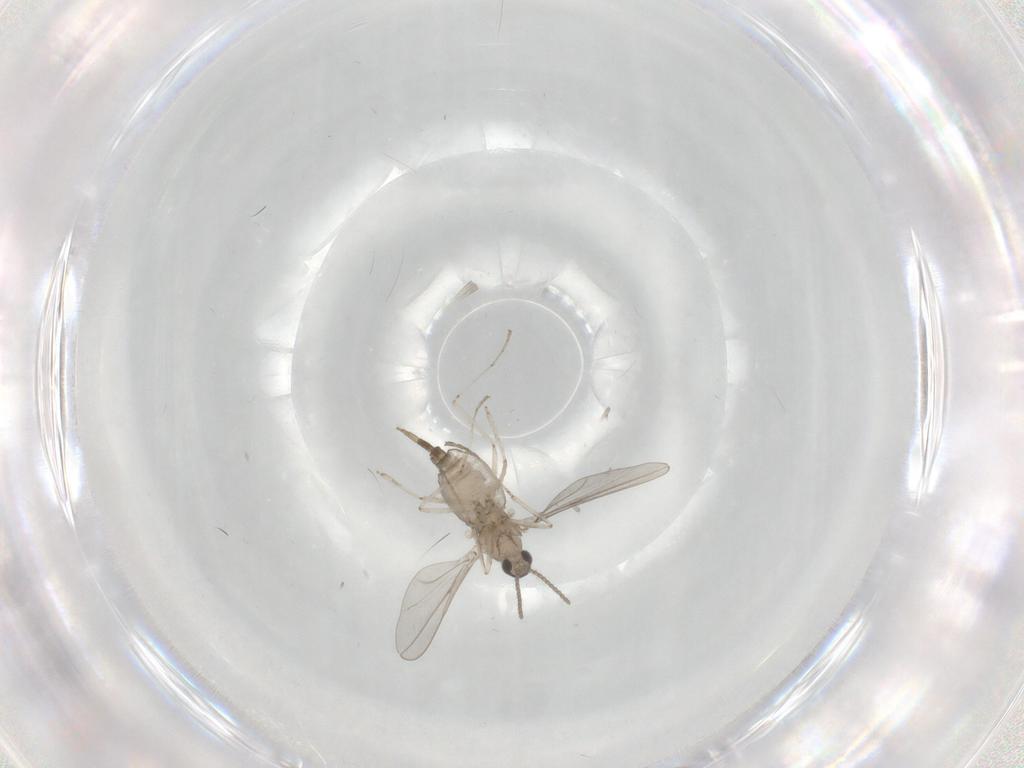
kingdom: Animalia
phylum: Arthropoda
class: Insecta
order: Diptera
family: Cecidomyiidae
